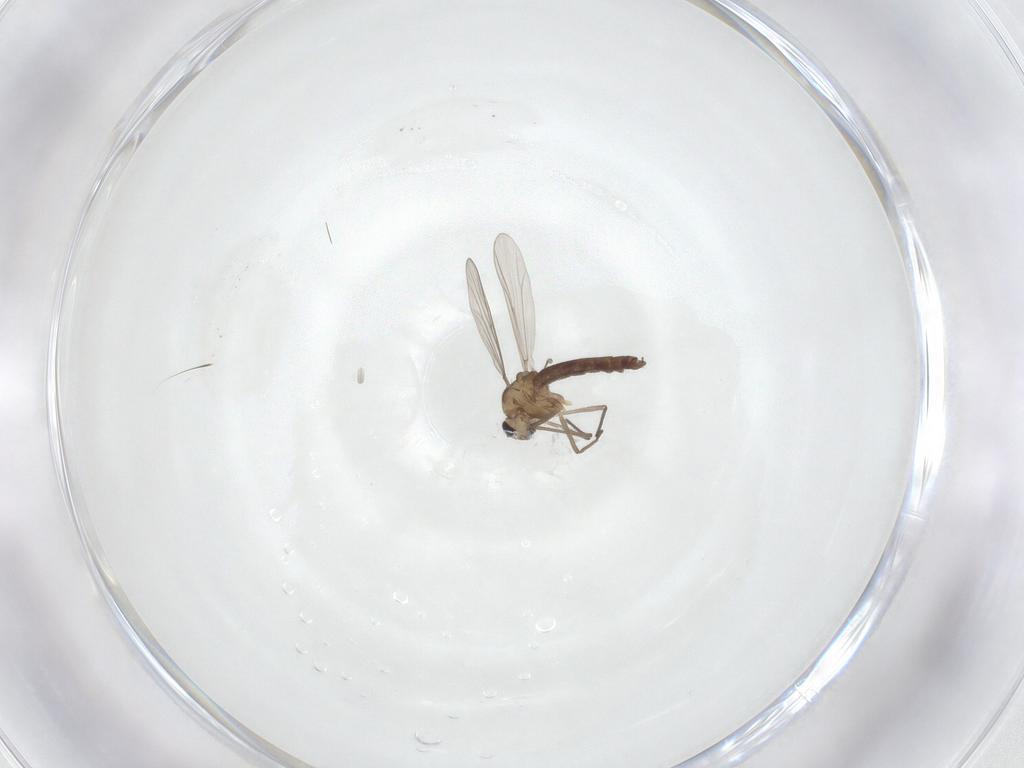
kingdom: Animalia
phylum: Arthropoda
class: Insecta
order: Diptera
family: Chironomidae
